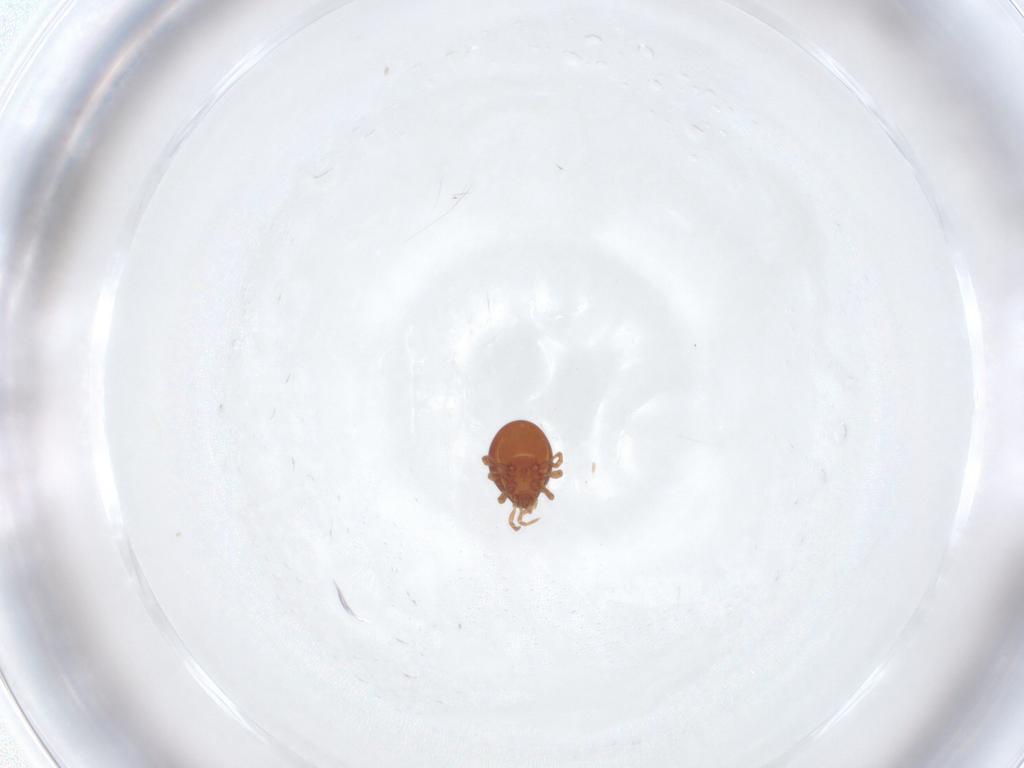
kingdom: Animalia
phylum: Arthropoda
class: Arachnida
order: Mesostigmata
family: Parasitidae
